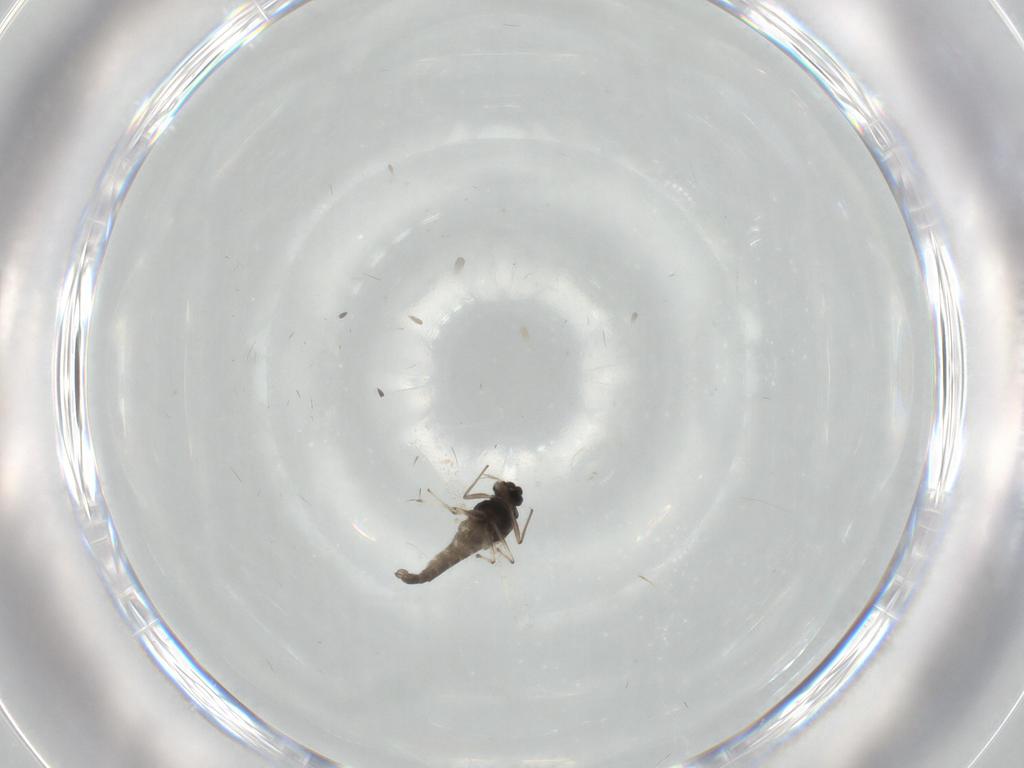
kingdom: Animalia
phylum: Arthropoda
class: Insecta
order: Diptera
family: Chironomidae
